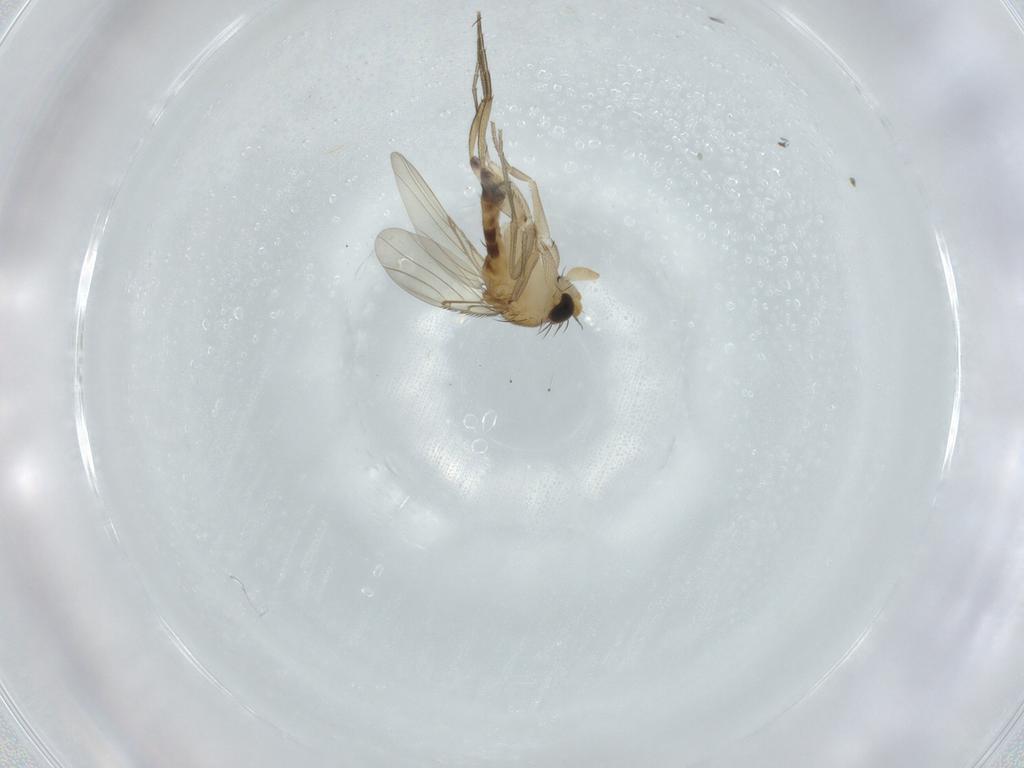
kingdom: Animalia
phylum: Arthropoda
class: Insecta
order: Diptera
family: Phoridae
